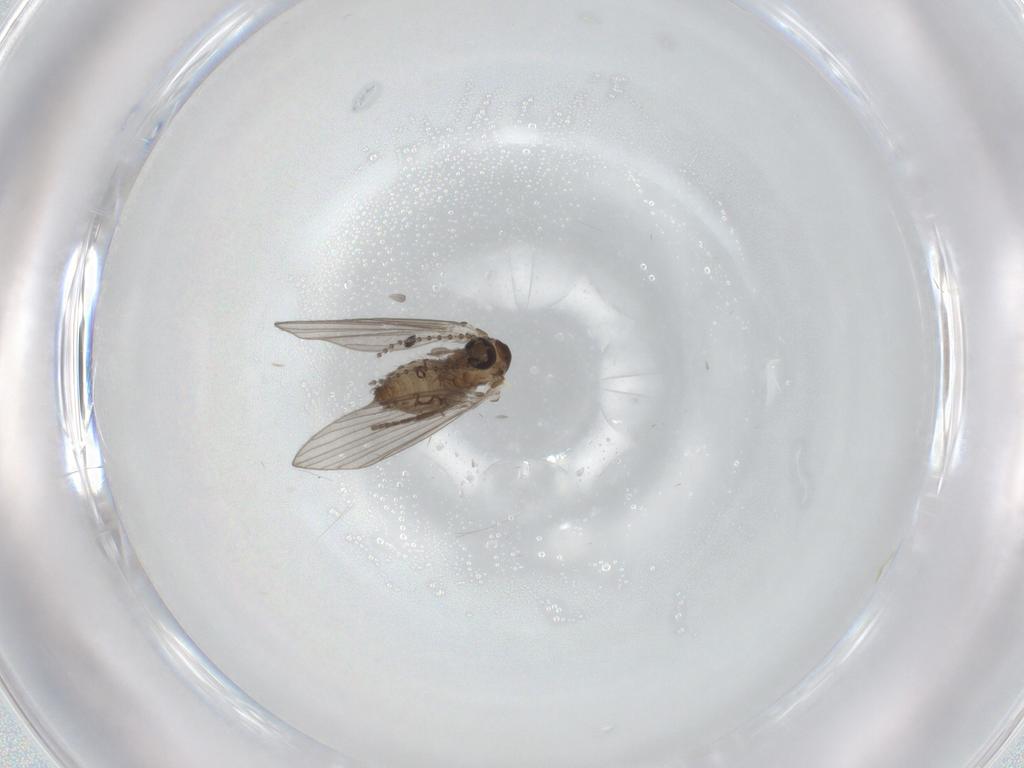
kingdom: Animalia
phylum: Arthropoda
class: Insecta
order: Diptera
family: Psychodidae
